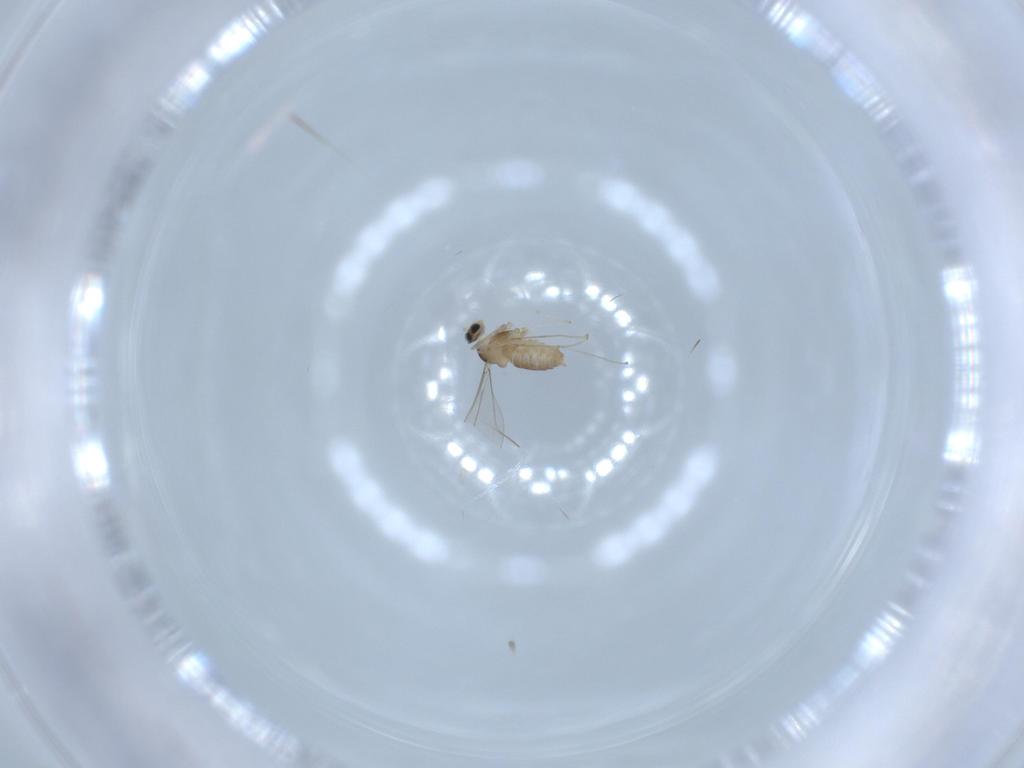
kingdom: Animalia
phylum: Arthropoda
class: Insecta
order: Diptera
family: Cecidomyiidae
